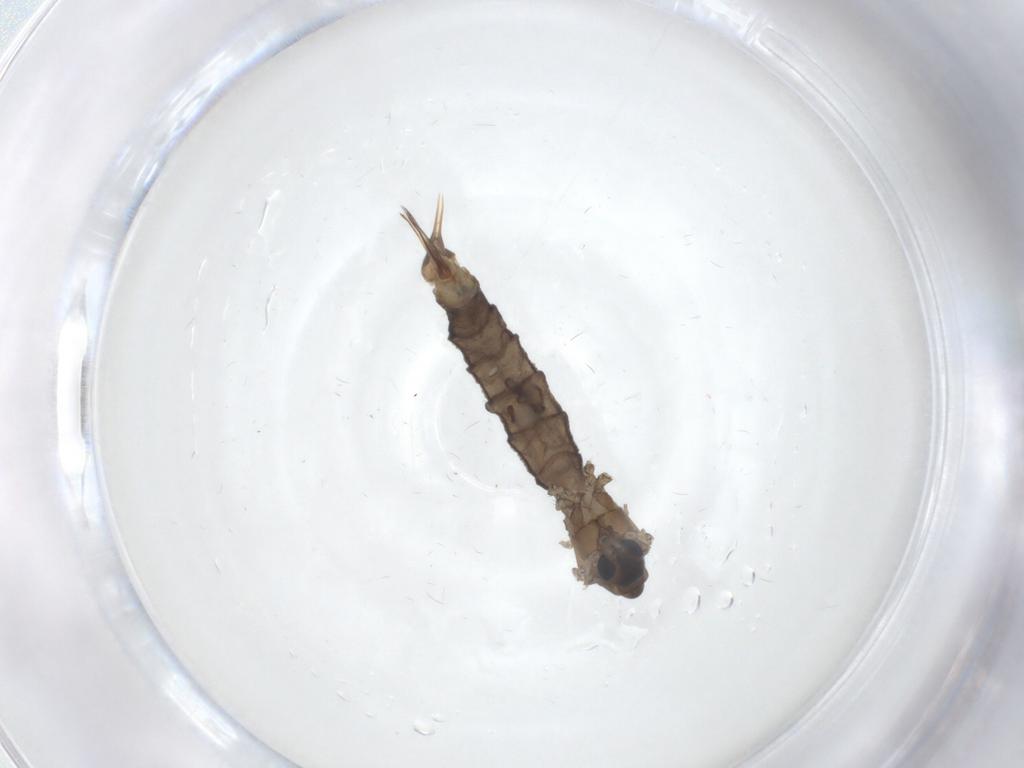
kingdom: Animalia
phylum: Arthropoda
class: Insecta
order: Diptera
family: Limoniidae
